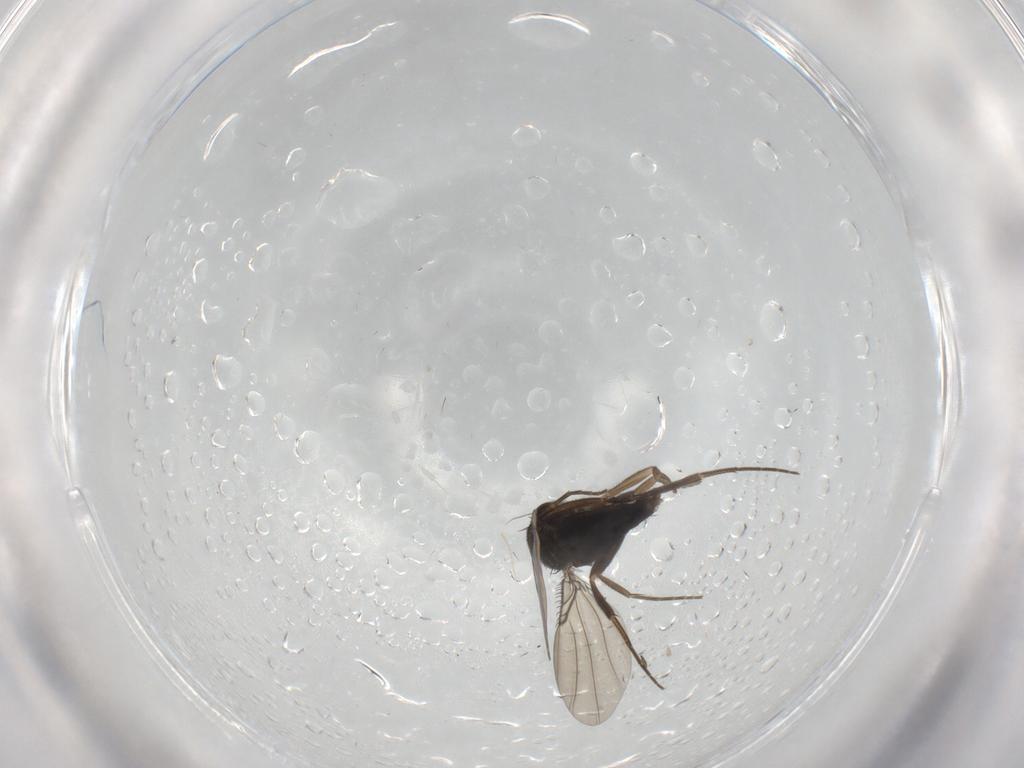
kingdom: Animalia
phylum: Arthropoda
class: Insecta
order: Diptera
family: Phoridae
